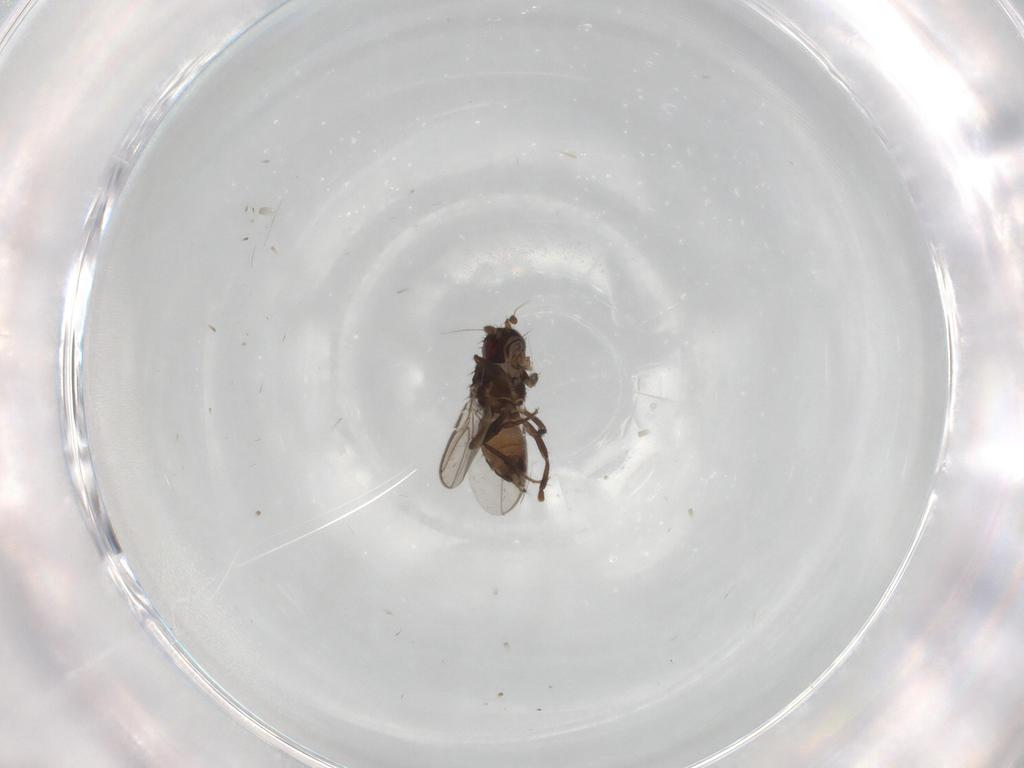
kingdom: Animalia
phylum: Arthropoda
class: Insecta
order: Diptera
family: Sphaeroceridae
